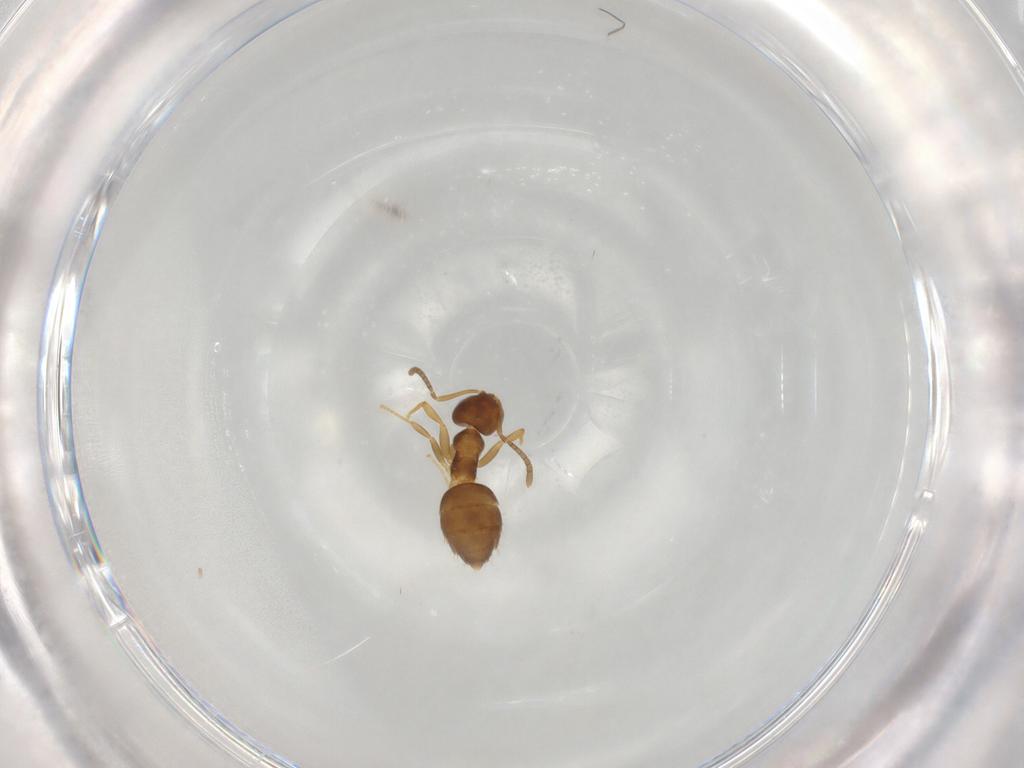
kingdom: Animalia
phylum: Arthropoda
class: Insecta
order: Hymenoptera
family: Formicidae
